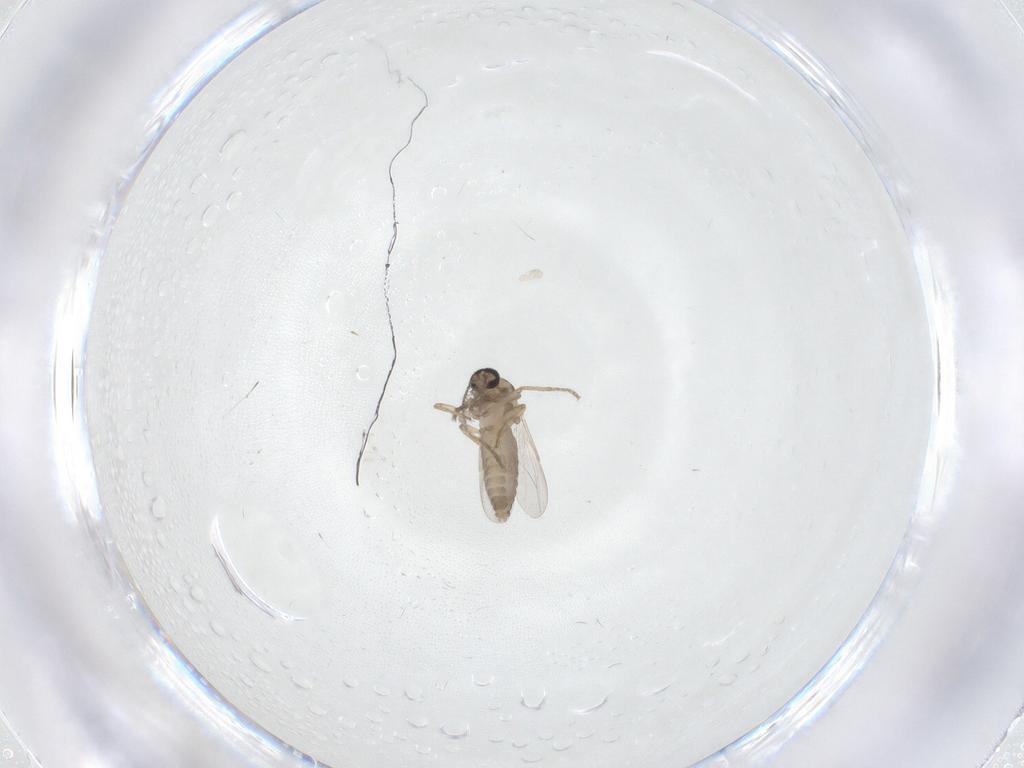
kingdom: Animalia
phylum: Arthropoda
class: Insecta
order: Diptera
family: Ceratopogonidae
